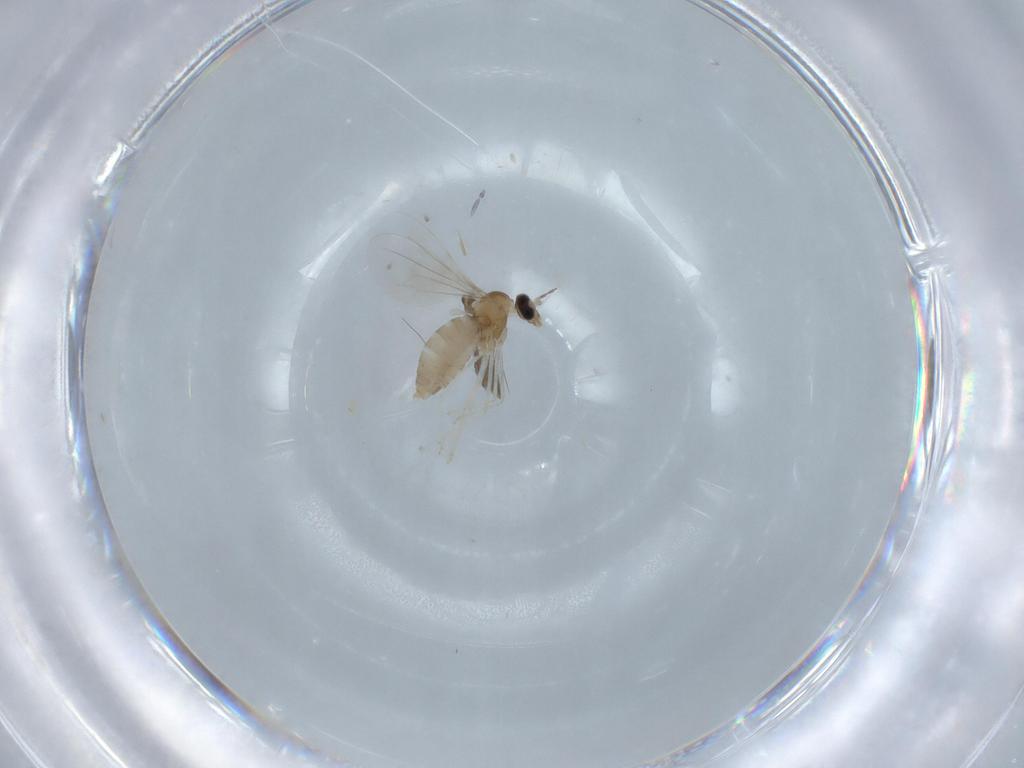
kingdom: Animalia
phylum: Arthropoda
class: Insecta
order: Diptera
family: Cecidomyiidae
